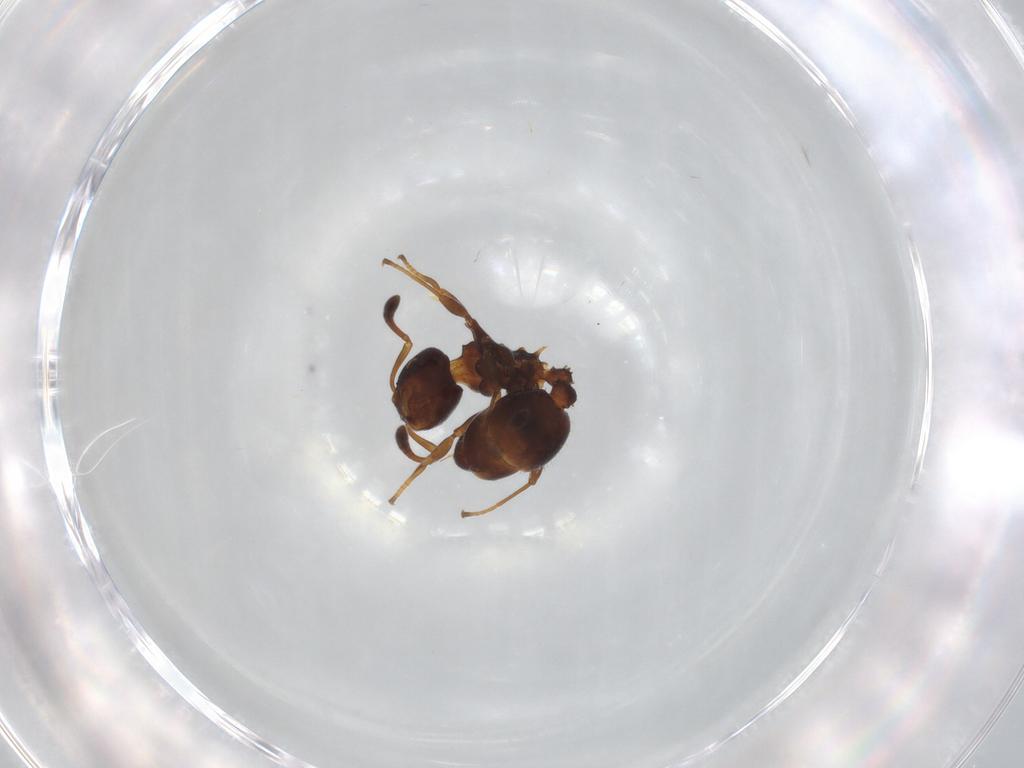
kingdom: Animalia
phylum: Arthropoda
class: Insecta
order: Hymenoptera
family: Formicidae
